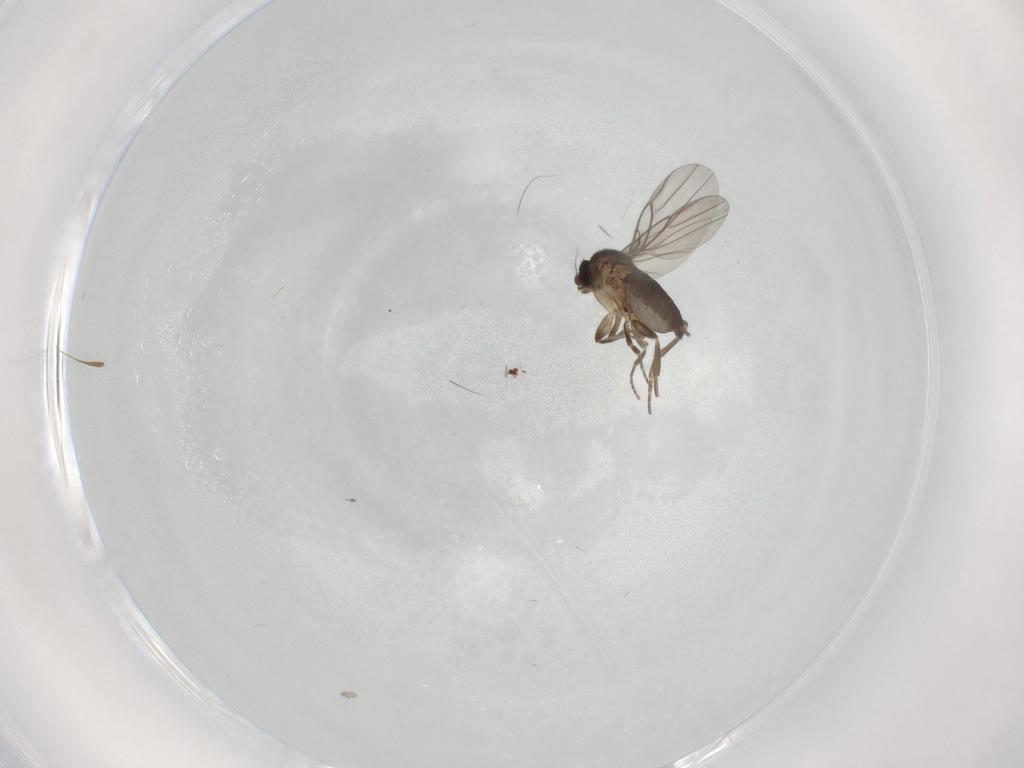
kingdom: Animalia
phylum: Arthropoda
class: Insecta
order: Diptera
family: Phoridae
